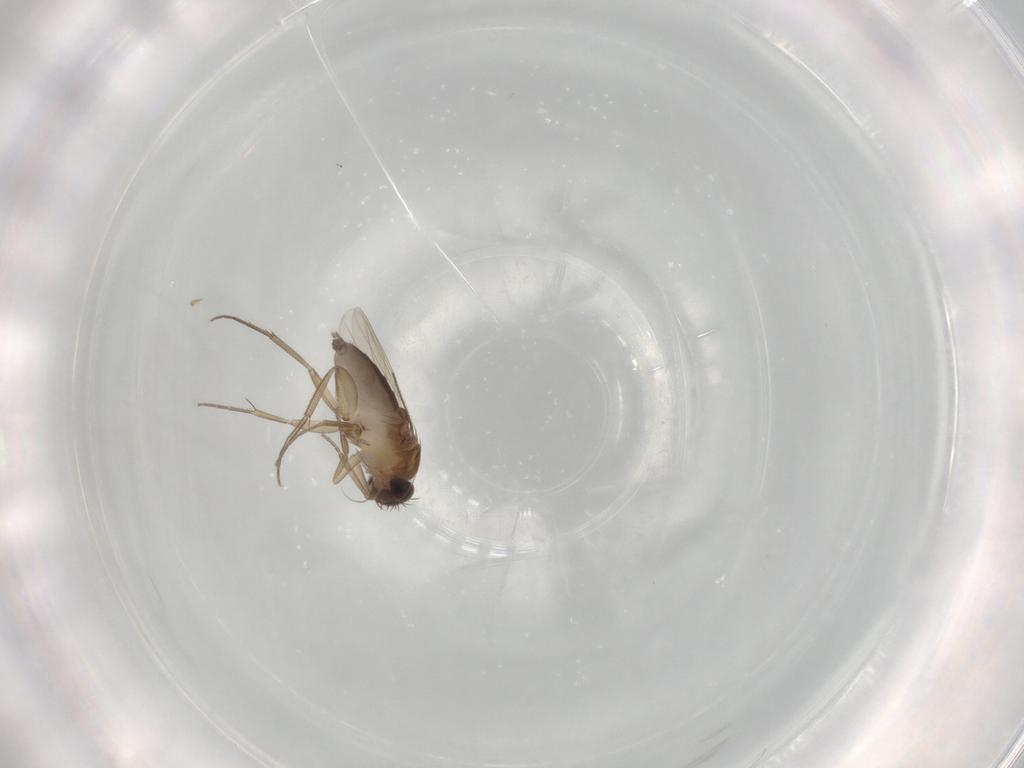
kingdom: Animalia
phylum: Arthropoda
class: Insecta
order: Diptera
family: Phoridae
